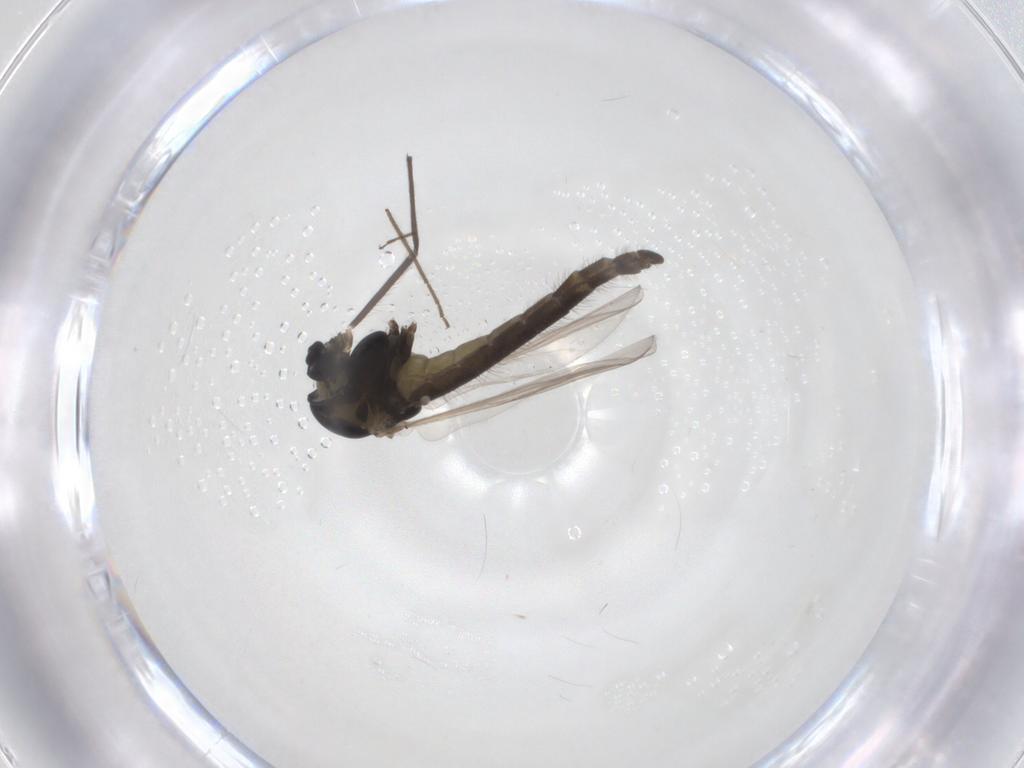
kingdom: Animalia
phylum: Arthropoda
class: Insecta
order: Diptera
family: Chironomidae
